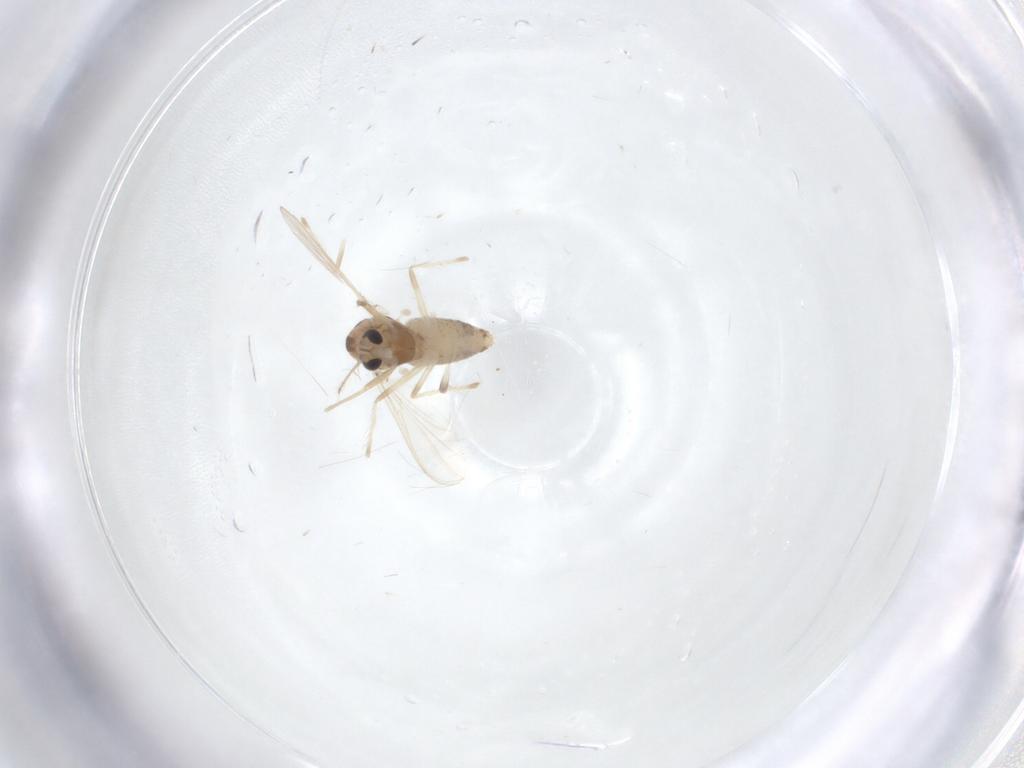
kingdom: Animalia
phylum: Arthropoda
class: Insecta
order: Diptera
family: Chironomidae
